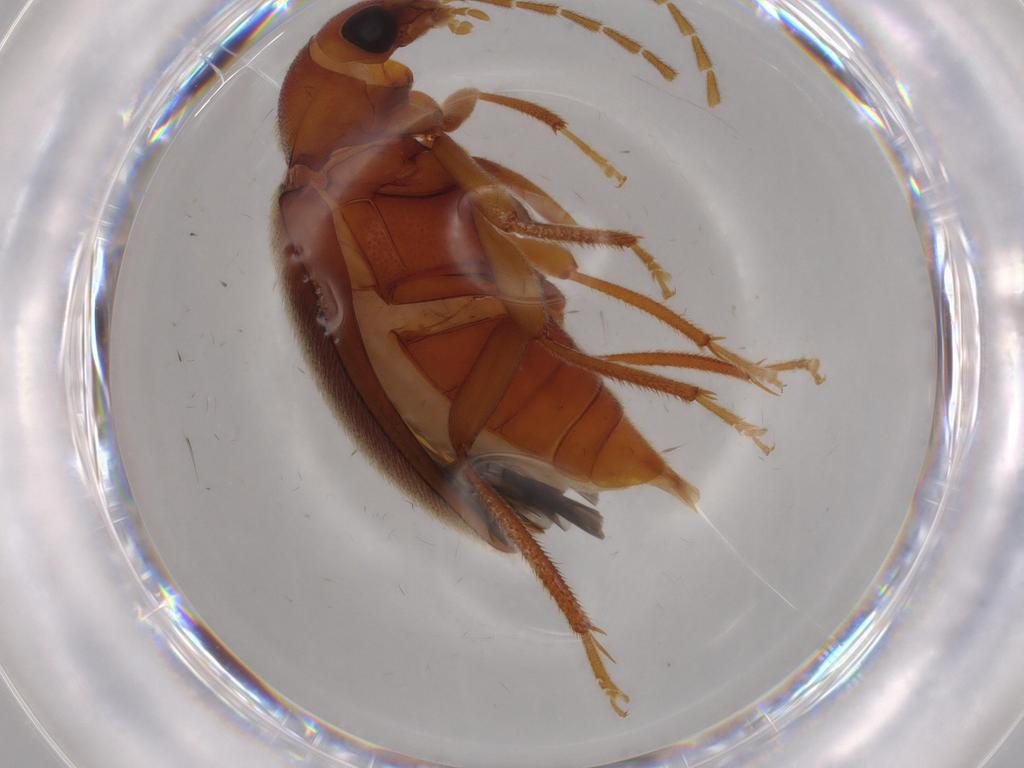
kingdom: Animalia
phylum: Arthropoda
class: Insecta
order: Coleoptera
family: Ptilodactylidae
